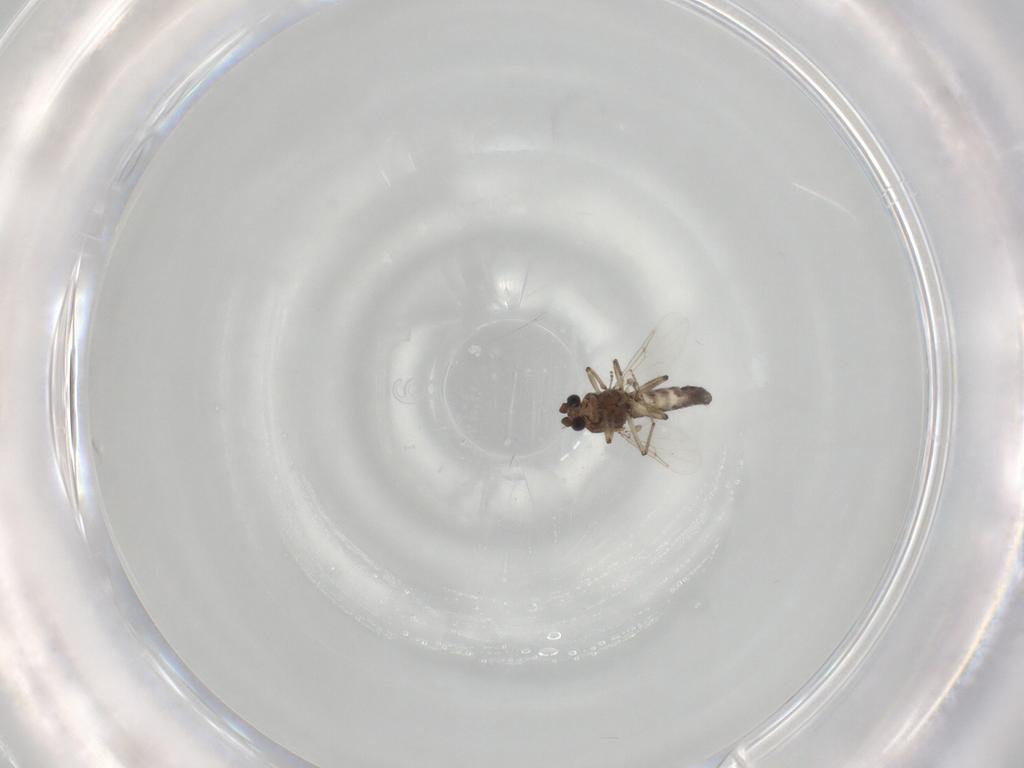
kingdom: Animalia
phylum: Arthropoda
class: Insecta
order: Diptera
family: Ceratopogonidae
